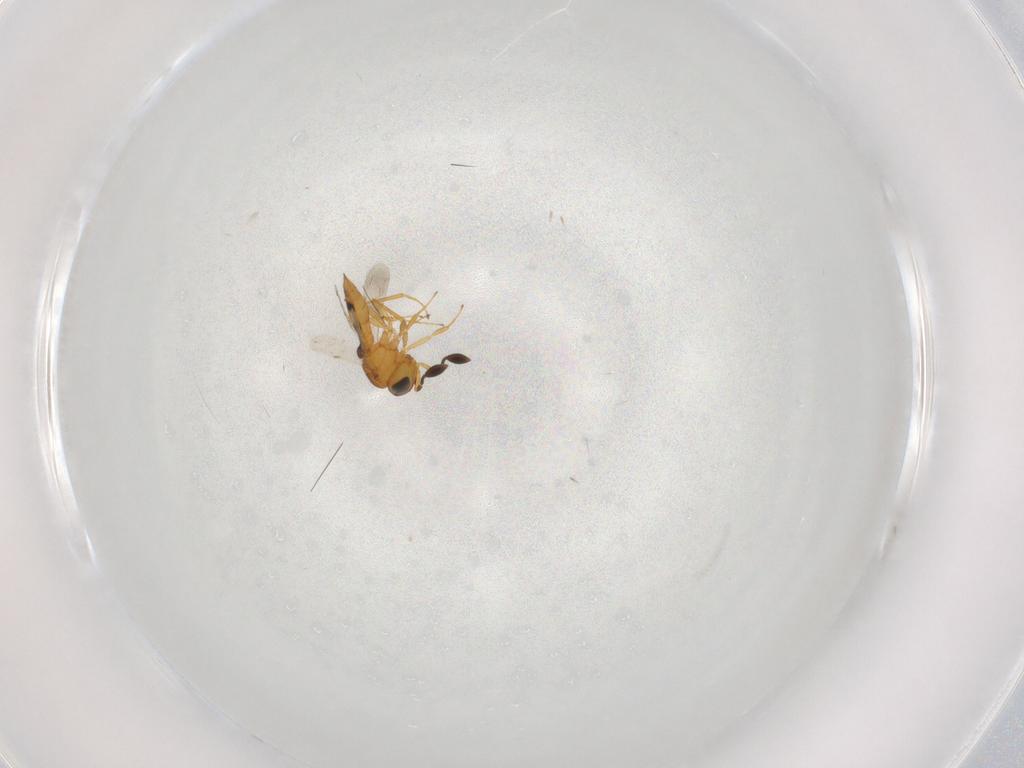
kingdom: Animalia
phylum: Arthropoda
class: Insecta
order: Hymenoptera
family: Scelionidae
